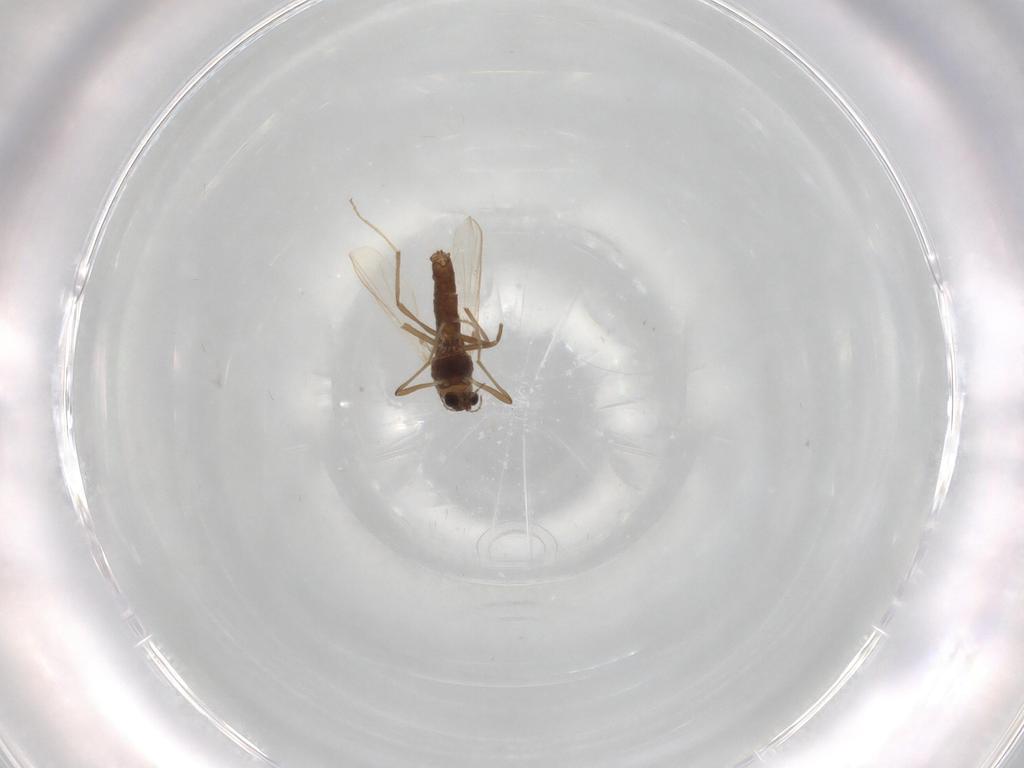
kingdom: Animalia
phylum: Arthropoda
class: Insecta
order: Diptera
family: Chironomidae
